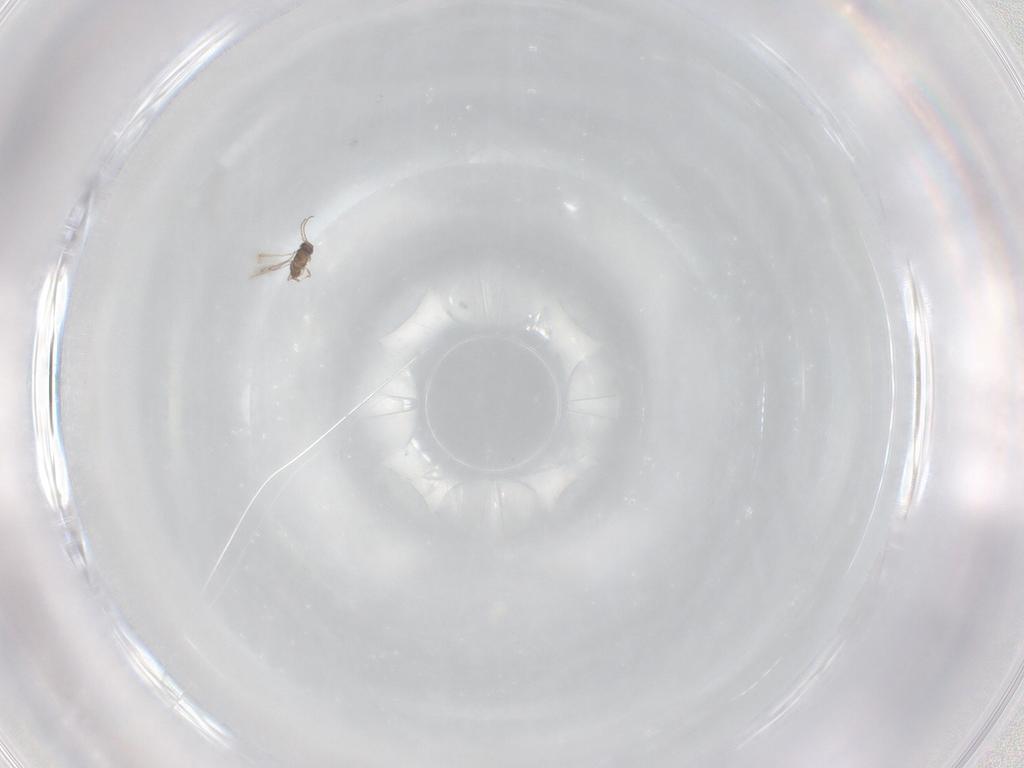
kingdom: Animalia
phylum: Arthropoda
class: Insecta
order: Hymenoptera
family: Mymaridae
